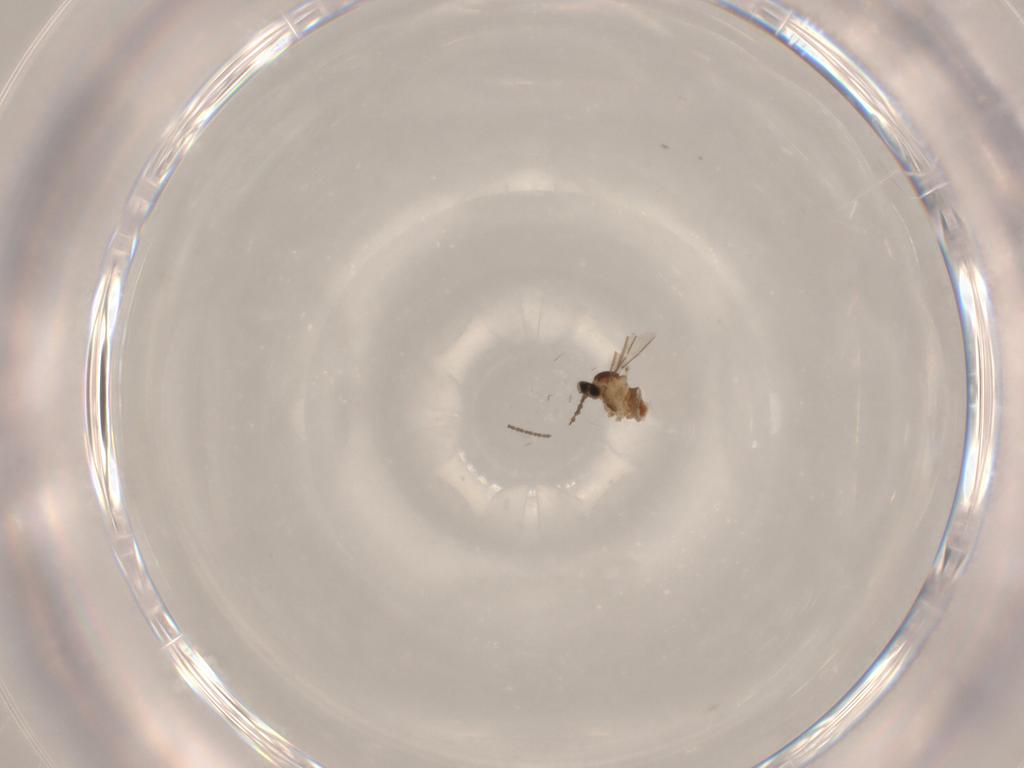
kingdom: Animalia
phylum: Arthropoda
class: Insecta
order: Diptera
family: Cecidomyiidae
